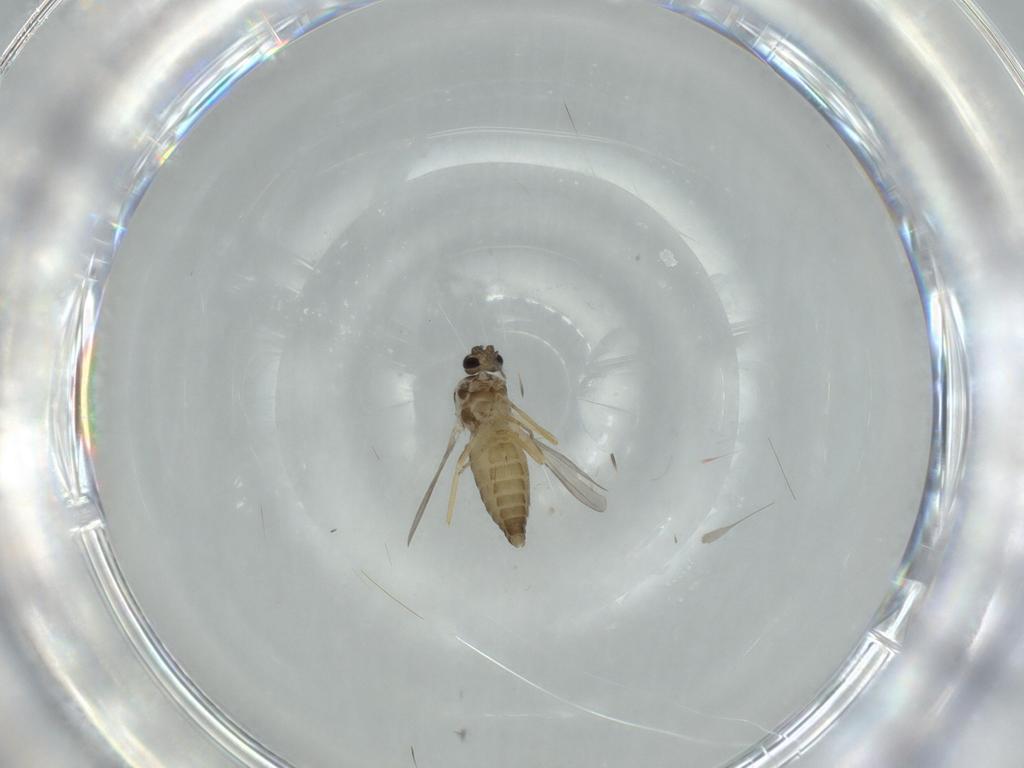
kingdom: Animalia
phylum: Arthropoda
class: Insecta
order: Diptera
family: Ceratopogonidae
